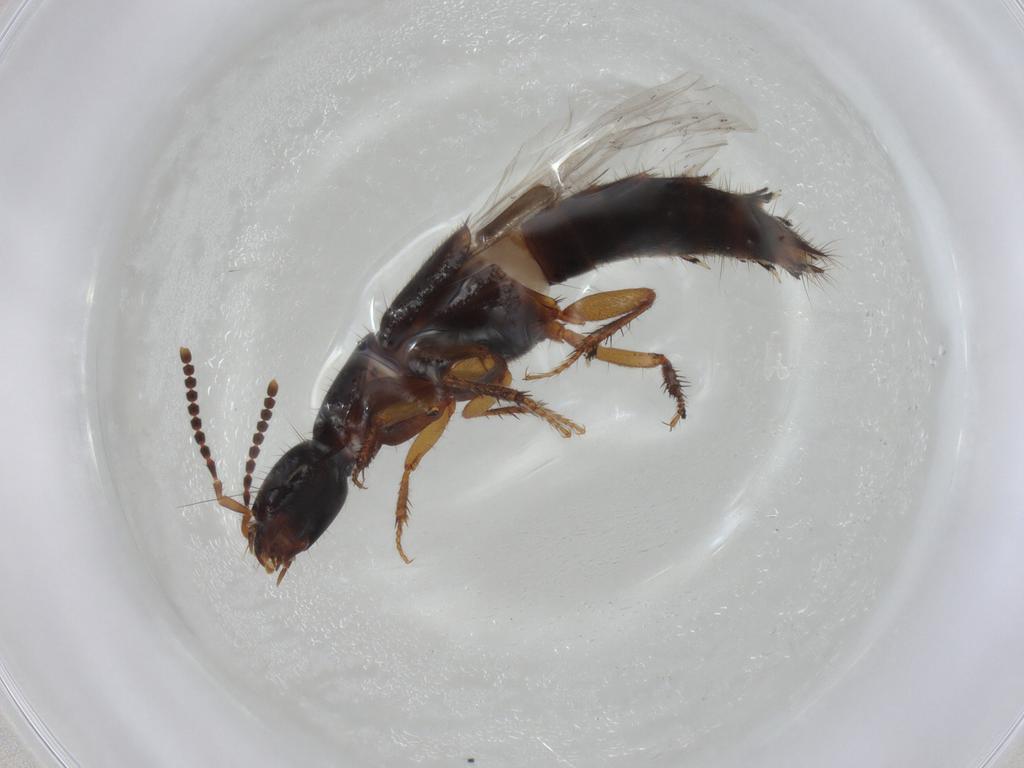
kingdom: Animalia
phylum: Arthropoda
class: Insecta
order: Coleoptera
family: Staphylinidae
